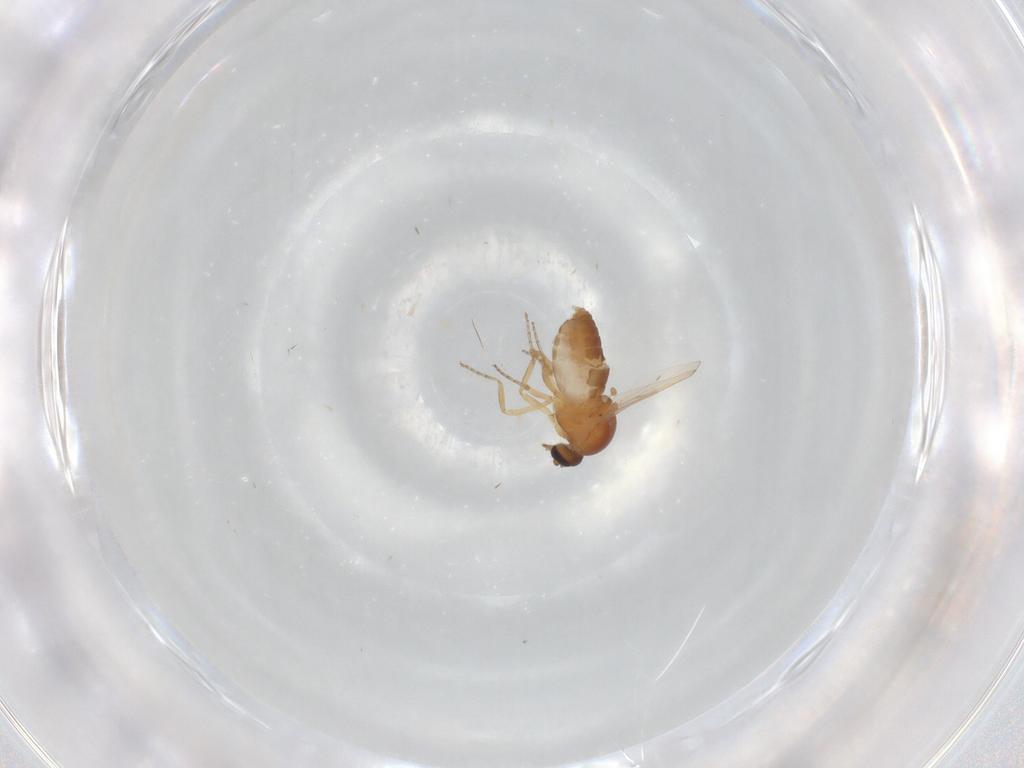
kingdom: Animalia
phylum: Arthropoda
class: Insecta
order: Diptera
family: Ceratopogonidae
